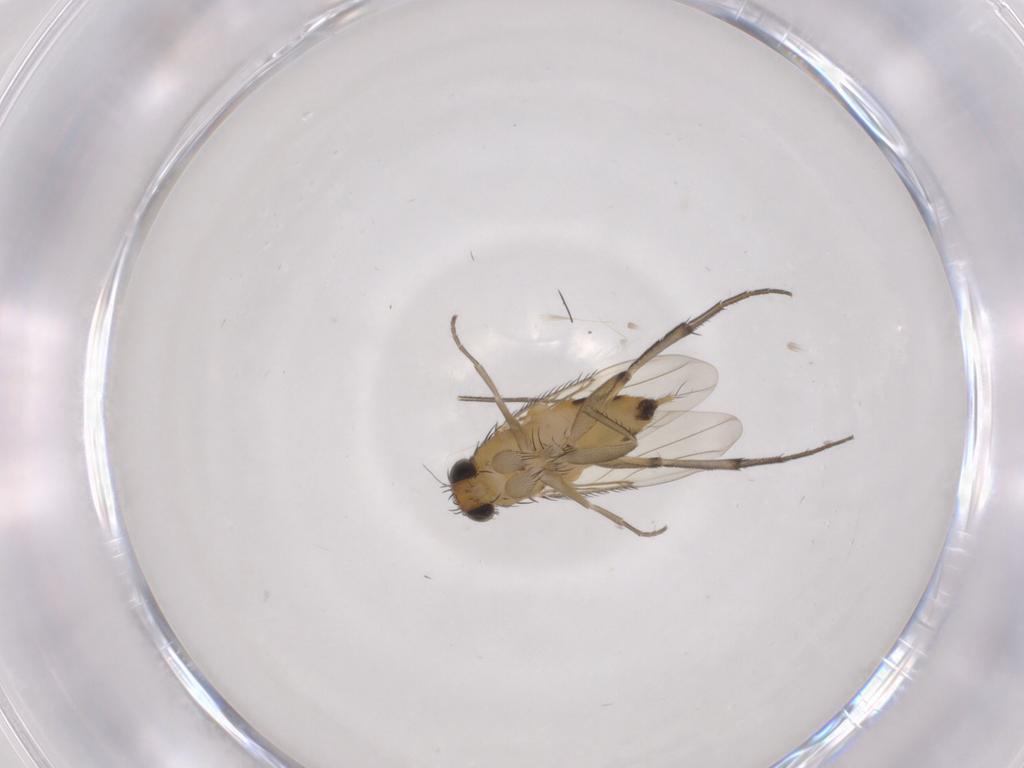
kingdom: Animalia
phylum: Arthropoda
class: Insecta
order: Diptera
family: Phoridae
